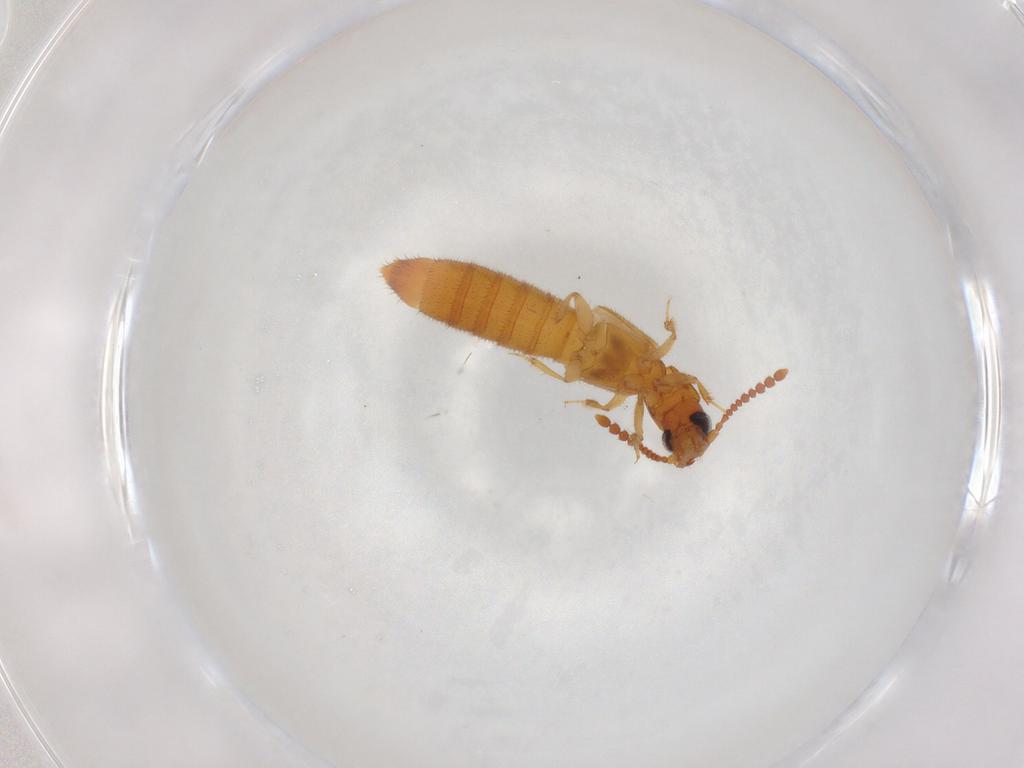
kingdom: Animalia
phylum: Arthropoda
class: Insecta
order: Coleoptera
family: Staphylinidae
